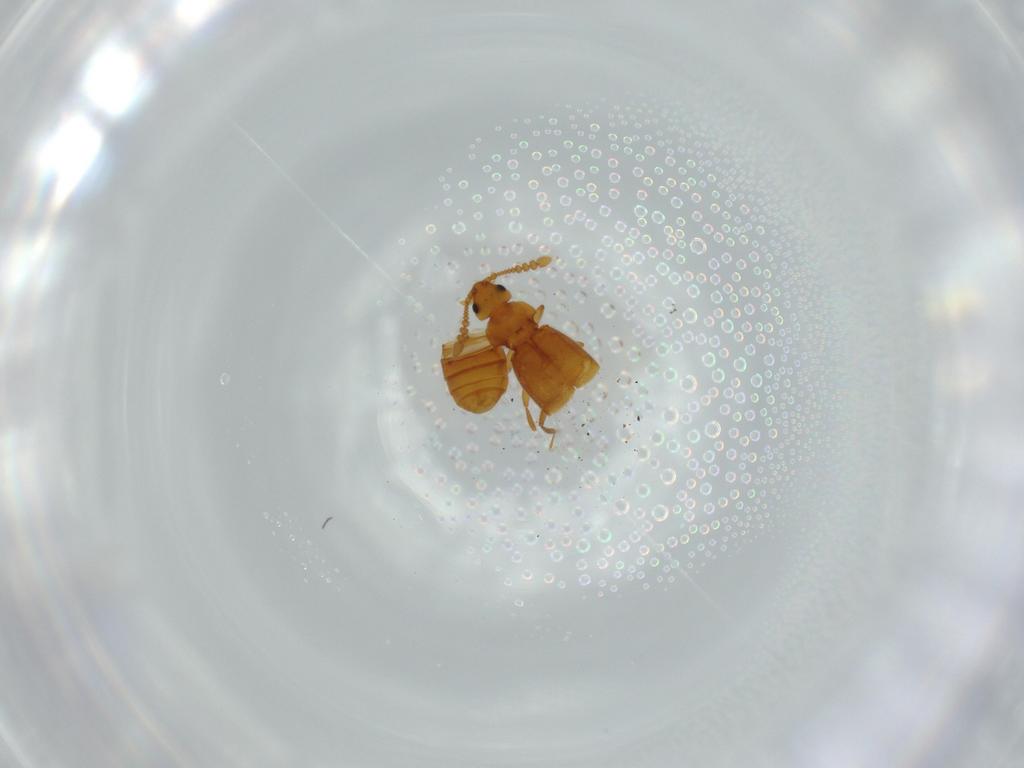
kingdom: Animalia
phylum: Arthropoda
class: Insecta
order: Coleoptera
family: Staphylinidae
